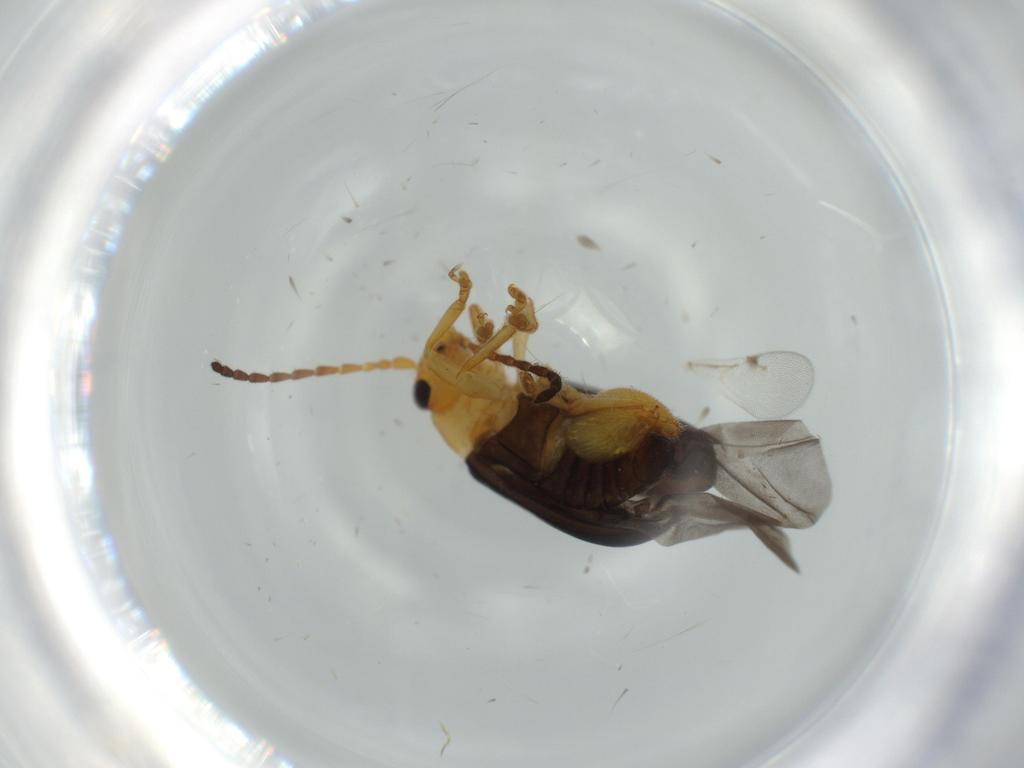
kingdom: Animalia
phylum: Arthropoda
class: Insecta
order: Coleoptera
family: Chrysomelidae
